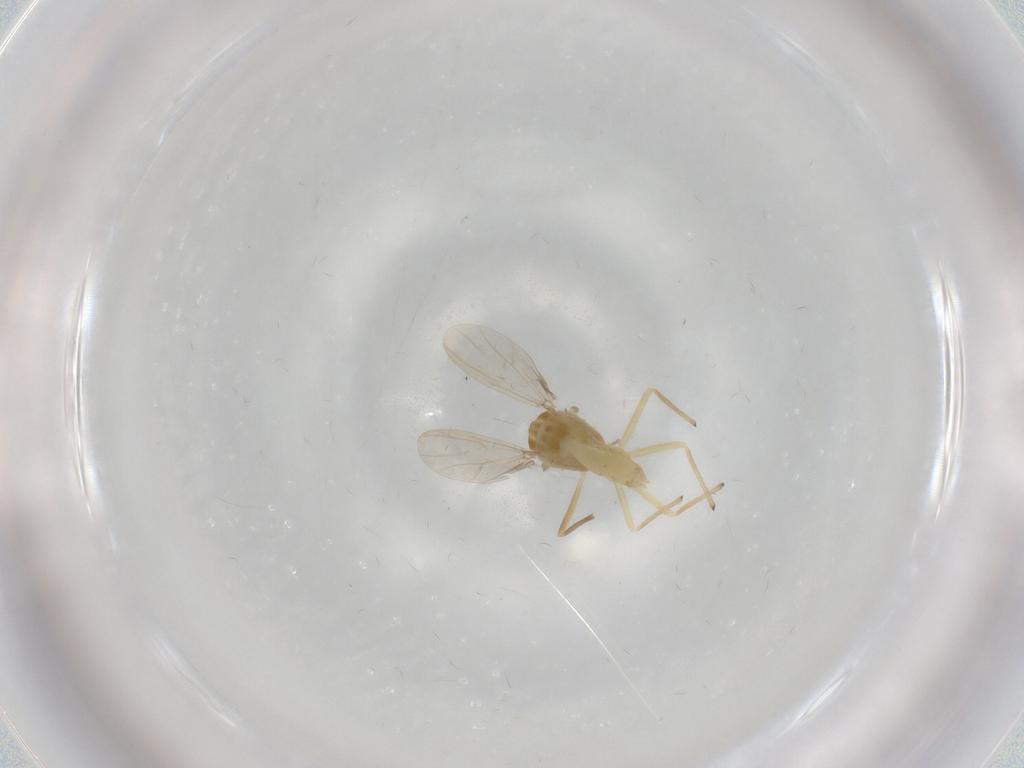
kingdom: Animalia
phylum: Arthropoda
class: Insecta
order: Diptera
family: Chironomidae
